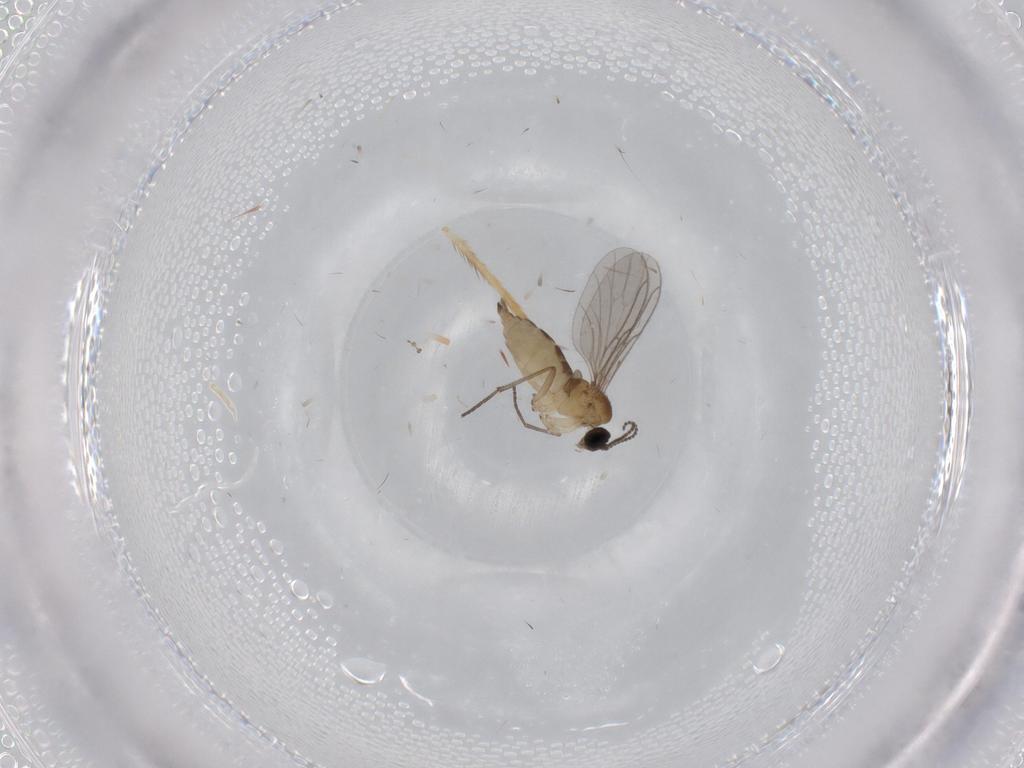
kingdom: Animalia
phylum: Arthropoda
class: Insecta
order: Diptera
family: Sciaridae
